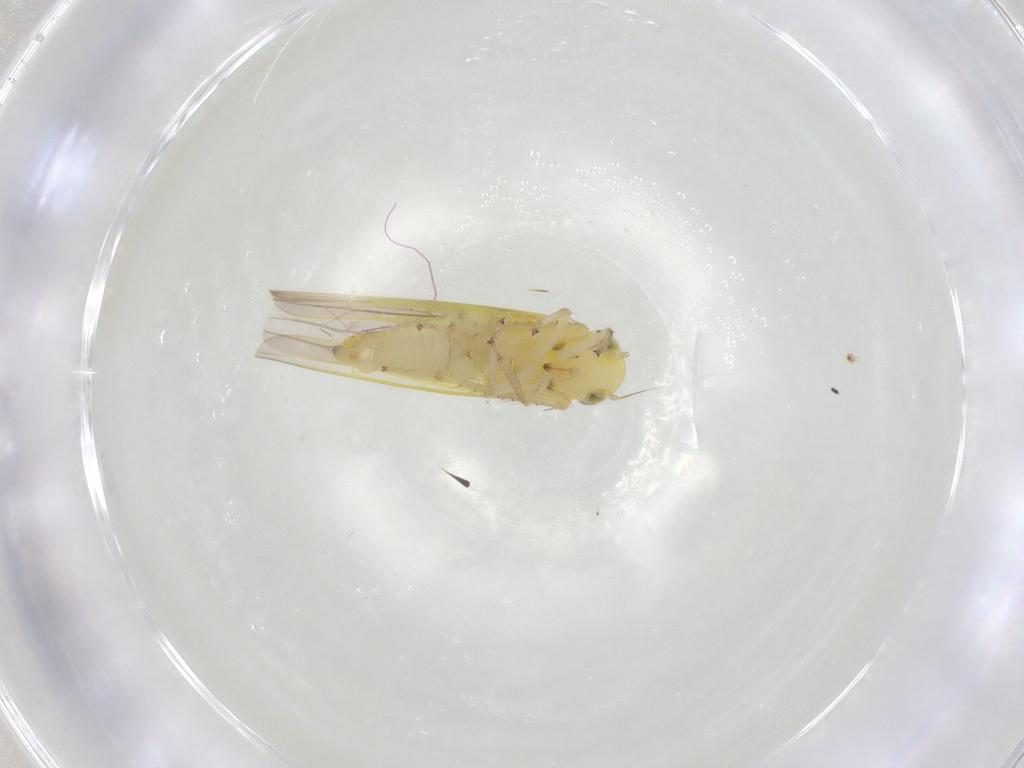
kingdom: Animalia
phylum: Arthropoda
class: Insecta
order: Hemiptera
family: Cicadellidae
